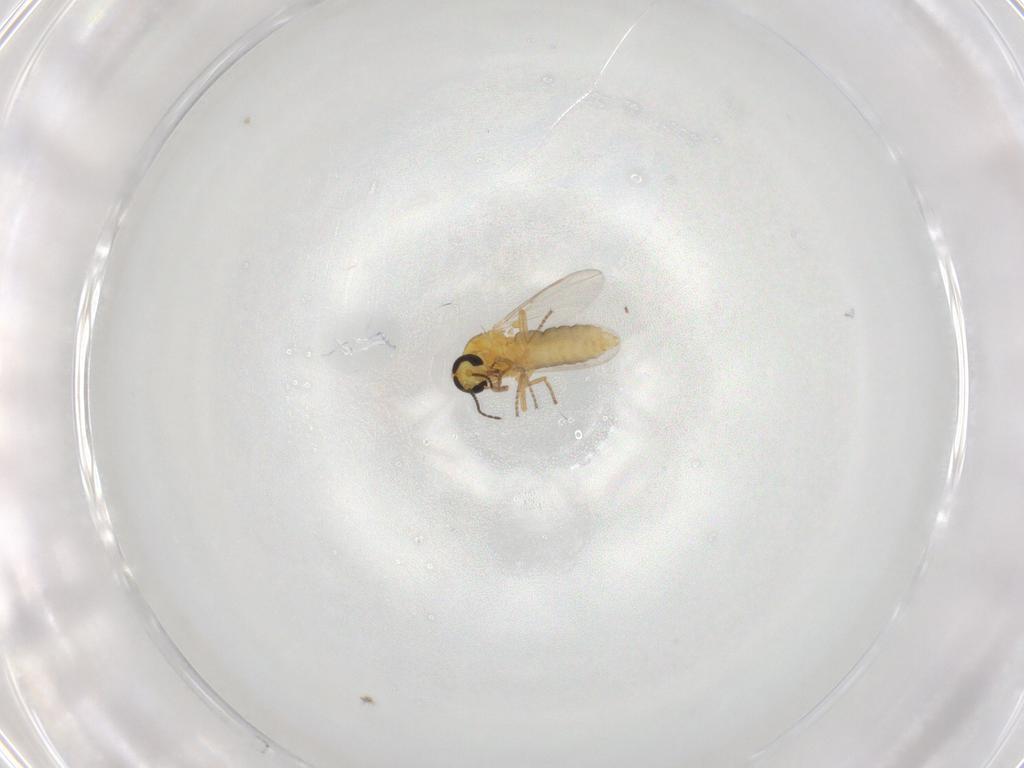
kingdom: Animalia
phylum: Arthropoda
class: Insecta
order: Diptera
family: Ceratopogonidae
